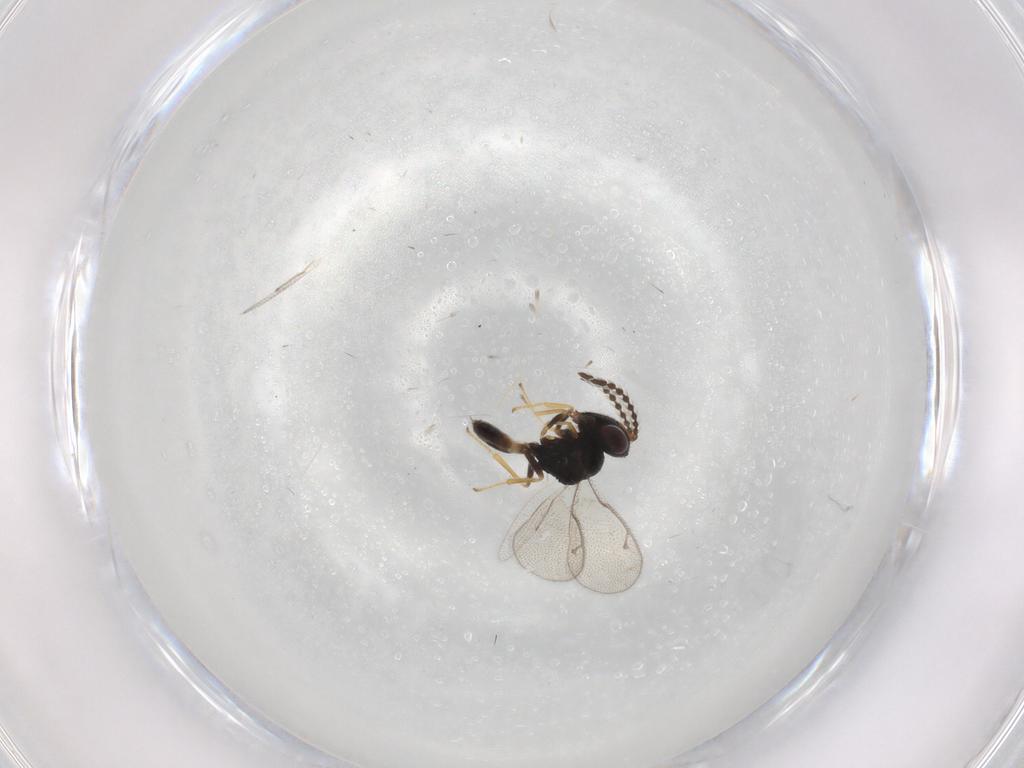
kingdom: Animalia
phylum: Arthropoda
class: Insecta
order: Hymenoptera
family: Pteromalidae
